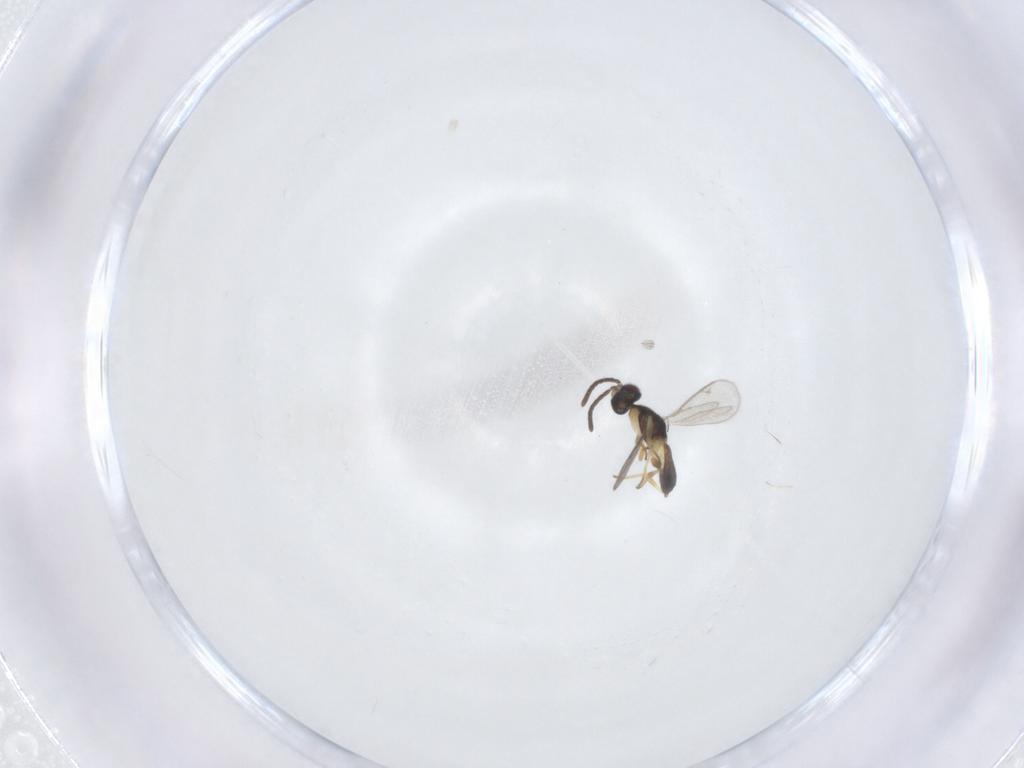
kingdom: Animalia
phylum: Arthropoda
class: Insecta
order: Hymenoptera
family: Eupelmidae
